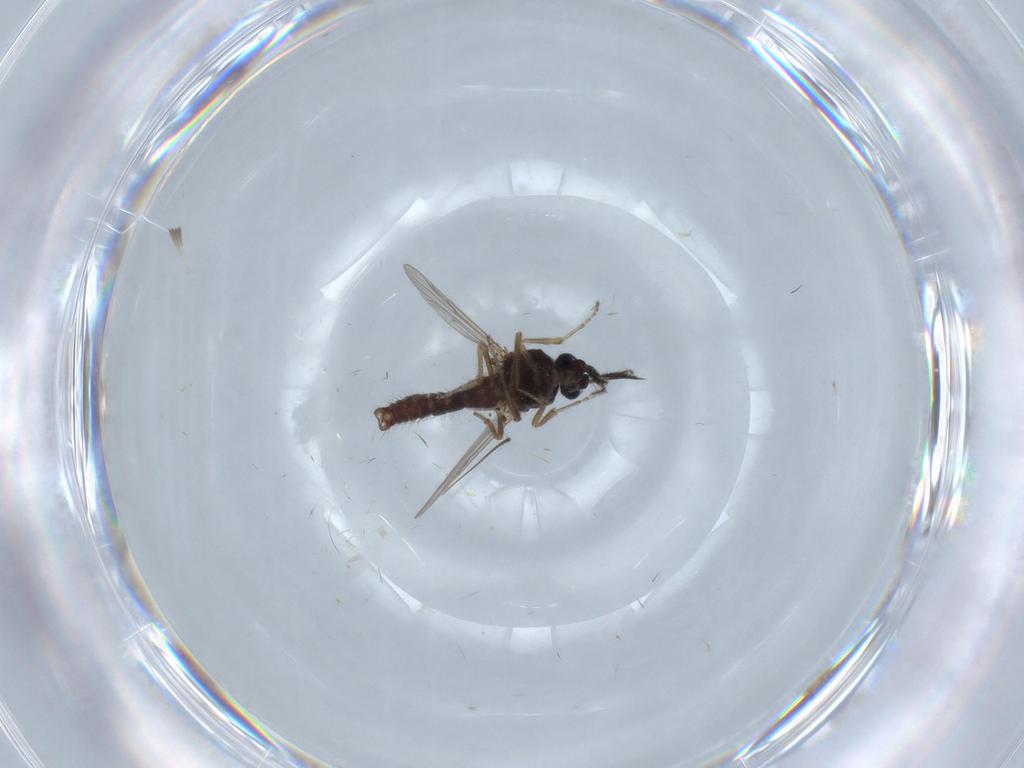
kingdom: Animalia
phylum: Arthropoda
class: Insecta
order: Diptera
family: Ceratopogonidae
